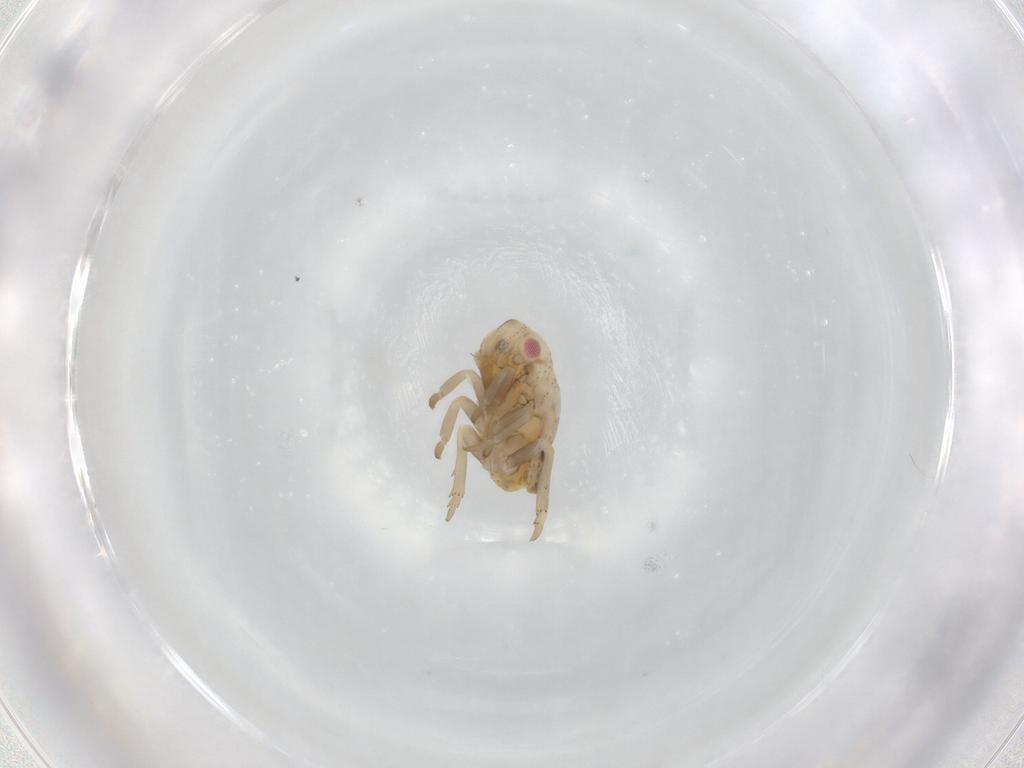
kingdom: Animalia
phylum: Arthropoda
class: Insecta
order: Hemiptera
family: Flatidae
